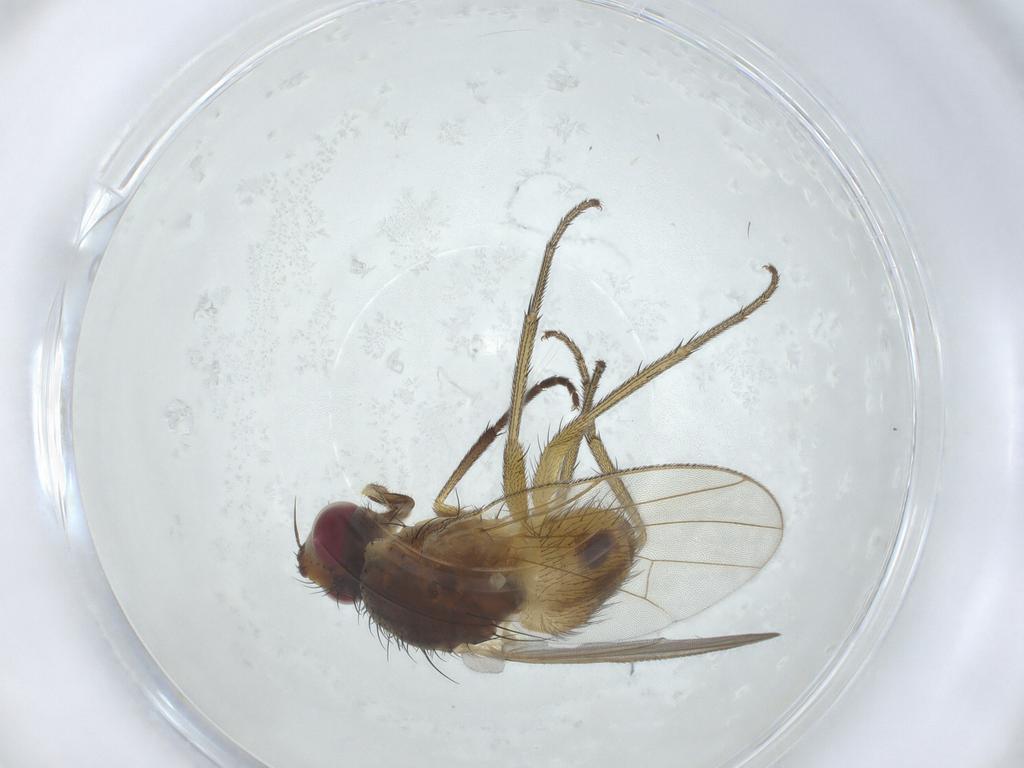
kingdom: Animalia
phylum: Arthropoda
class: Insecta
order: Diptera
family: Muscidae
